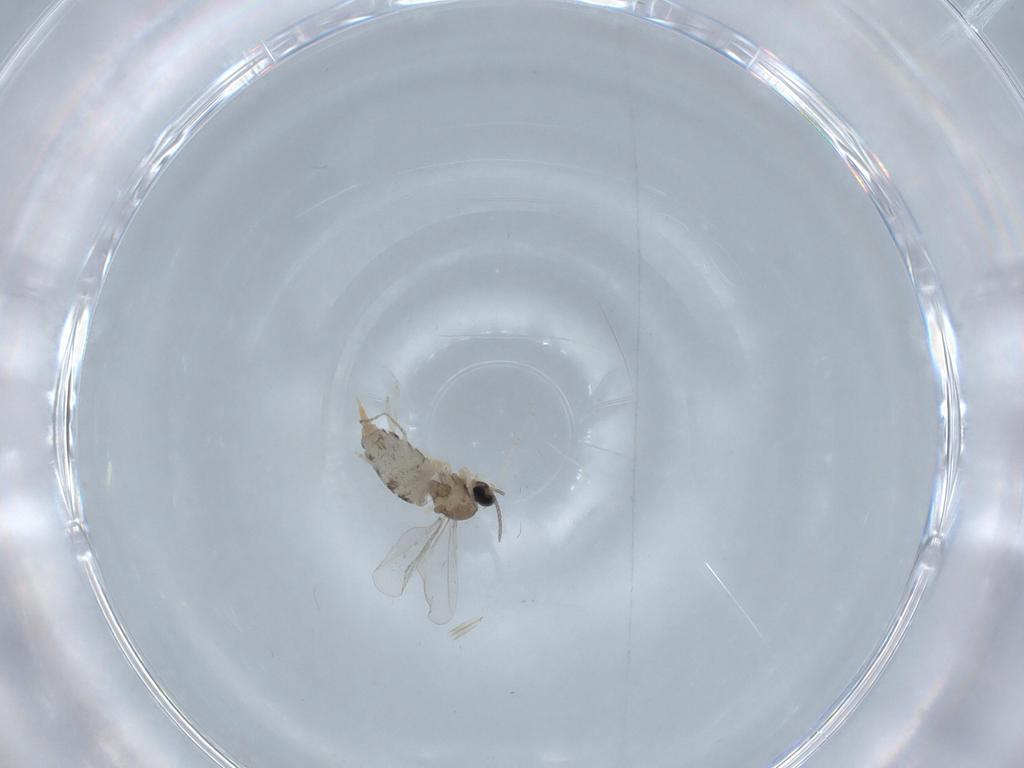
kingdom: Animalia
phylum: Arthropoda
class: Insecta
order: Diptera
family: Cecidomyiidae
